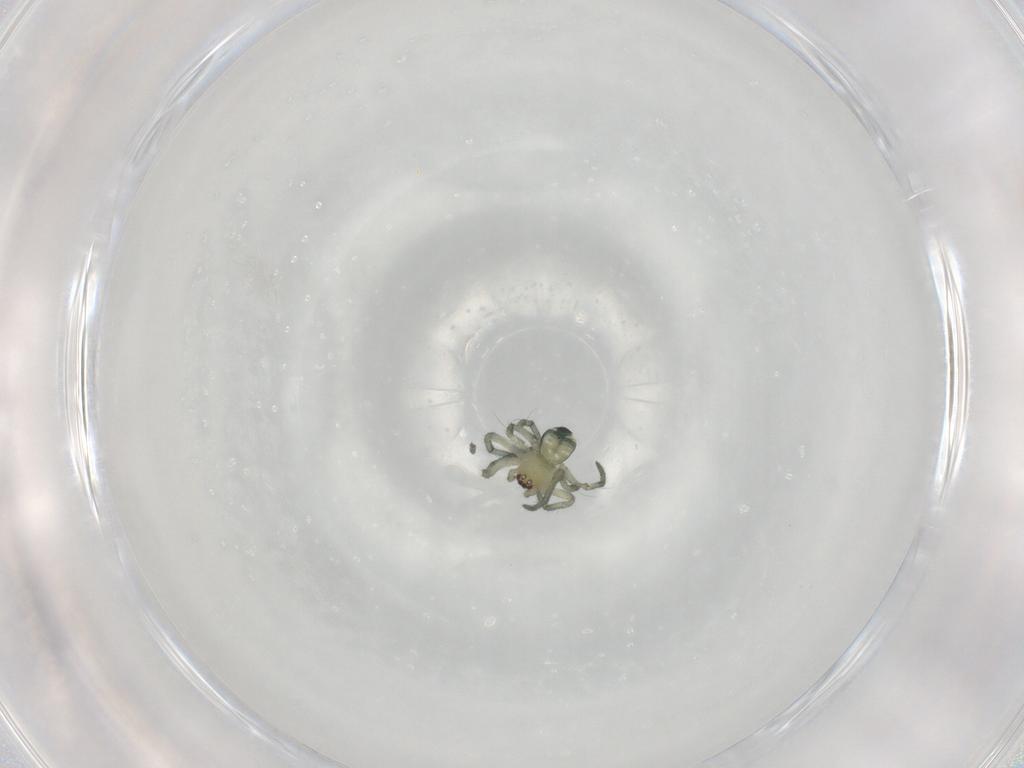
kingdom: Animalia
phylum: Arthropoda
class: Arachnida
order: Araneae
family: Tetragnathidae
